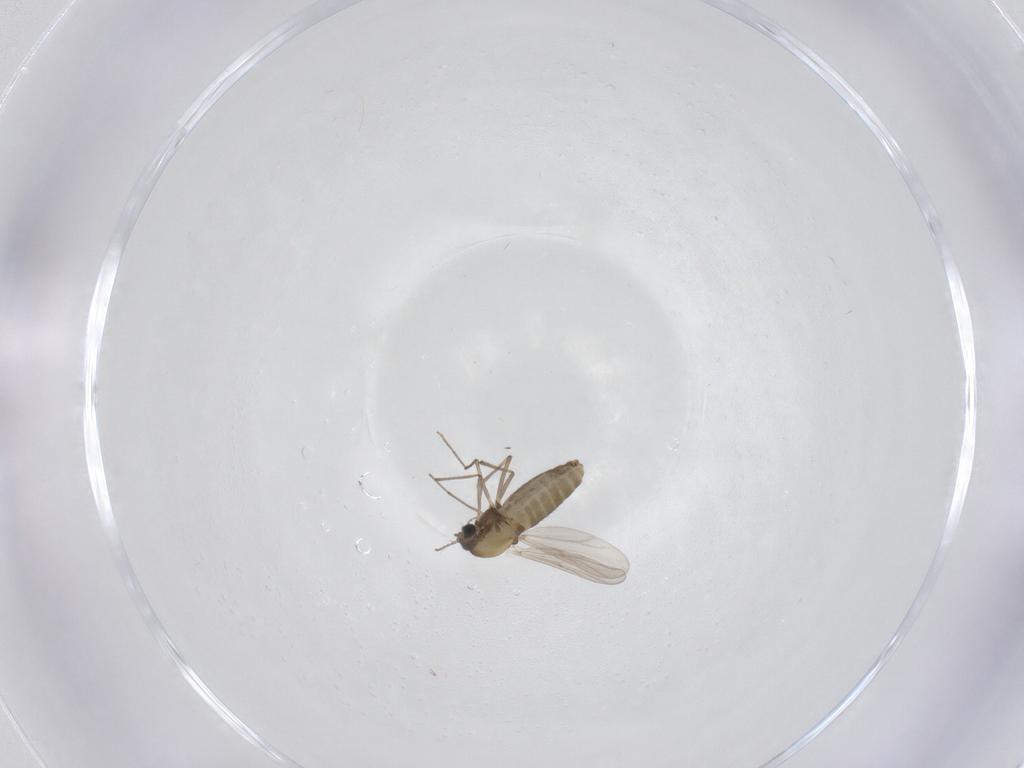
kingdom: Animalia
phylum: Arthropoda
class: Insecta
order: Diptera
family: Chironomidae
